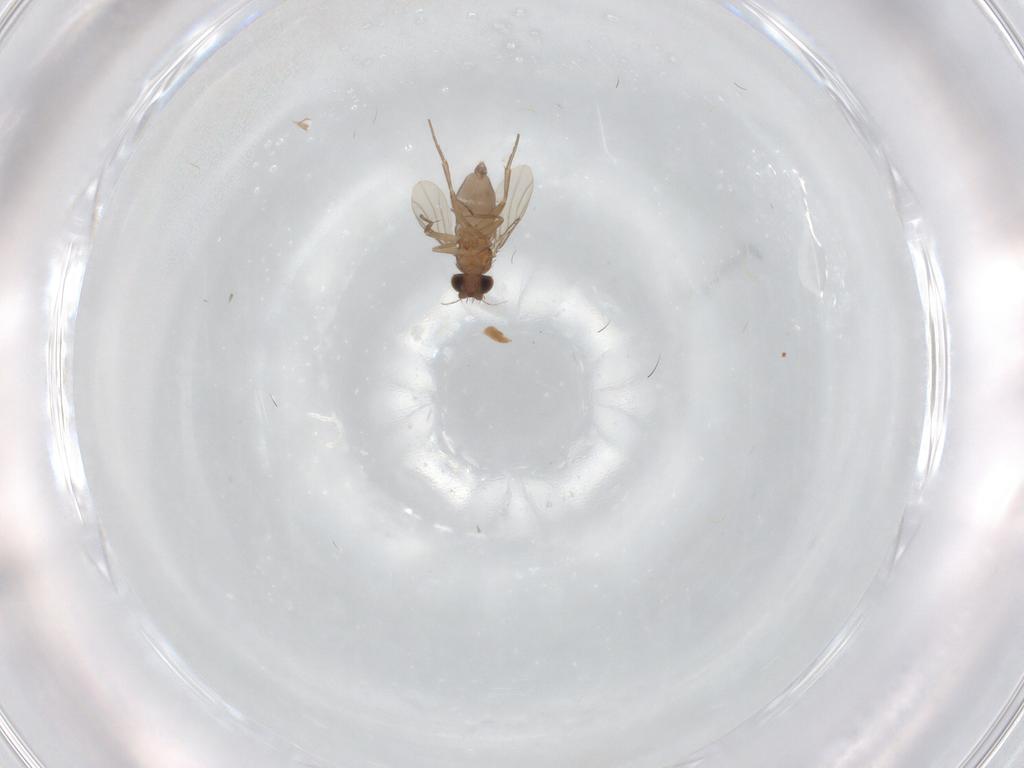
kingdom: Animalia
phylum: Arthropoda
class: Insecta
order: Diptera
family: Phoridae
